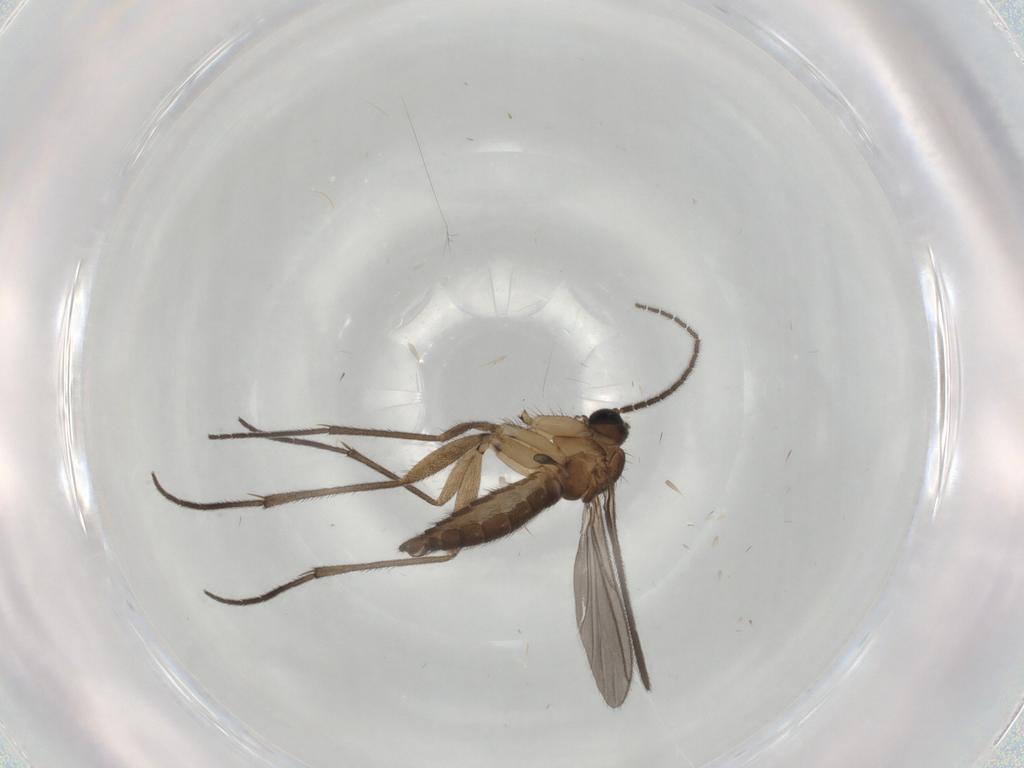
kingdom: Animalia
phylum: Arthropoda
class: Insecta
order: Diptera
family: Sciaridae
